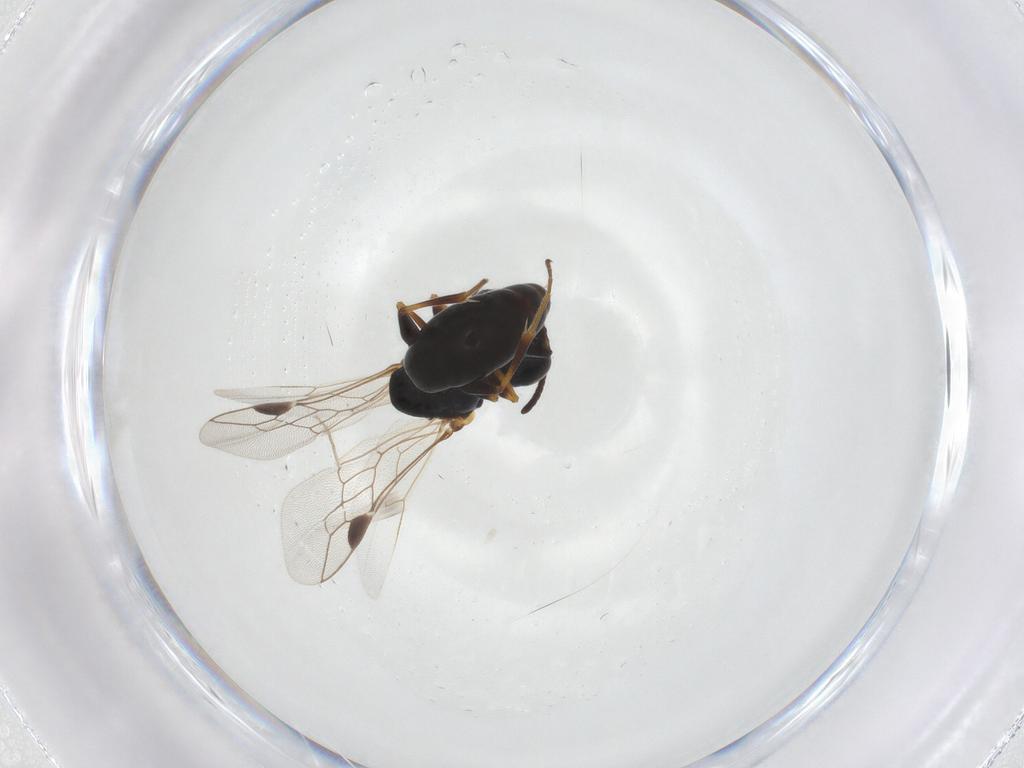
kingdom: Animalia
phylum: Arthropoda
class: Insecta
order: Hymenoptera
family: Crabronidae
